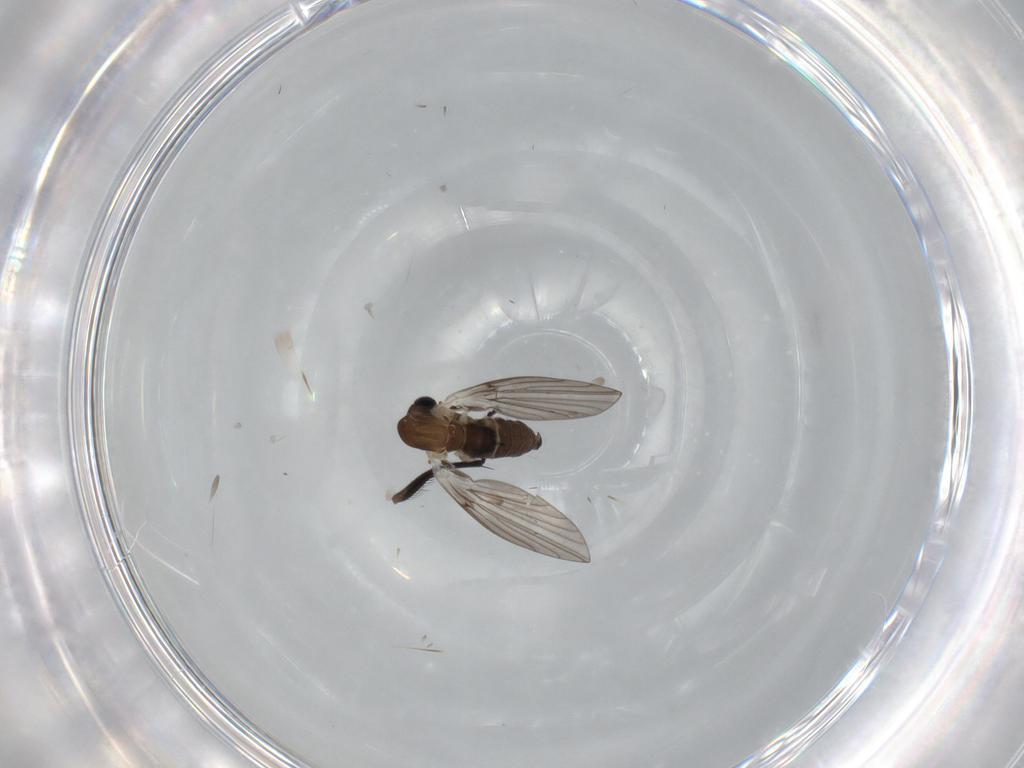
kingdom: Animalia
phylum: Arthropoda
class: Insecta
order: Diptera
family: Psychodidae
